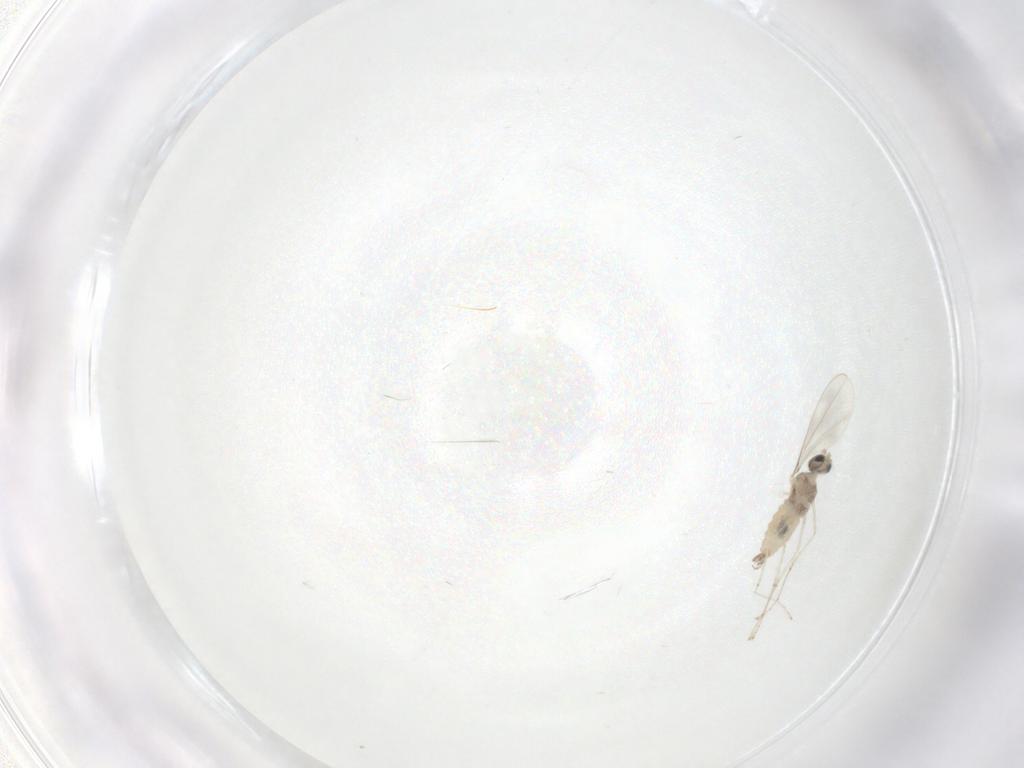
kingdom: Animalia
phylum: Arthropoda
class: Insecta
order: Diptera
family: Cecidomyiidae
